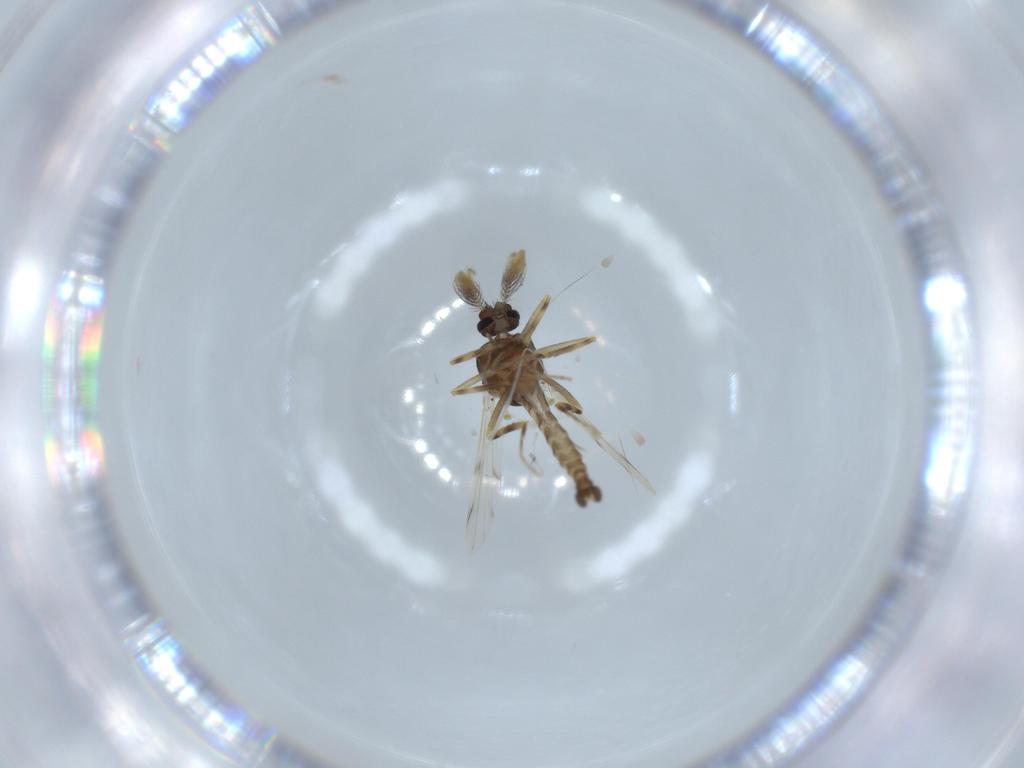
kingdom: Animalia
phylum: Arthropoda
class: Insecta
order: Diptera
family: Ceratopogonidae
